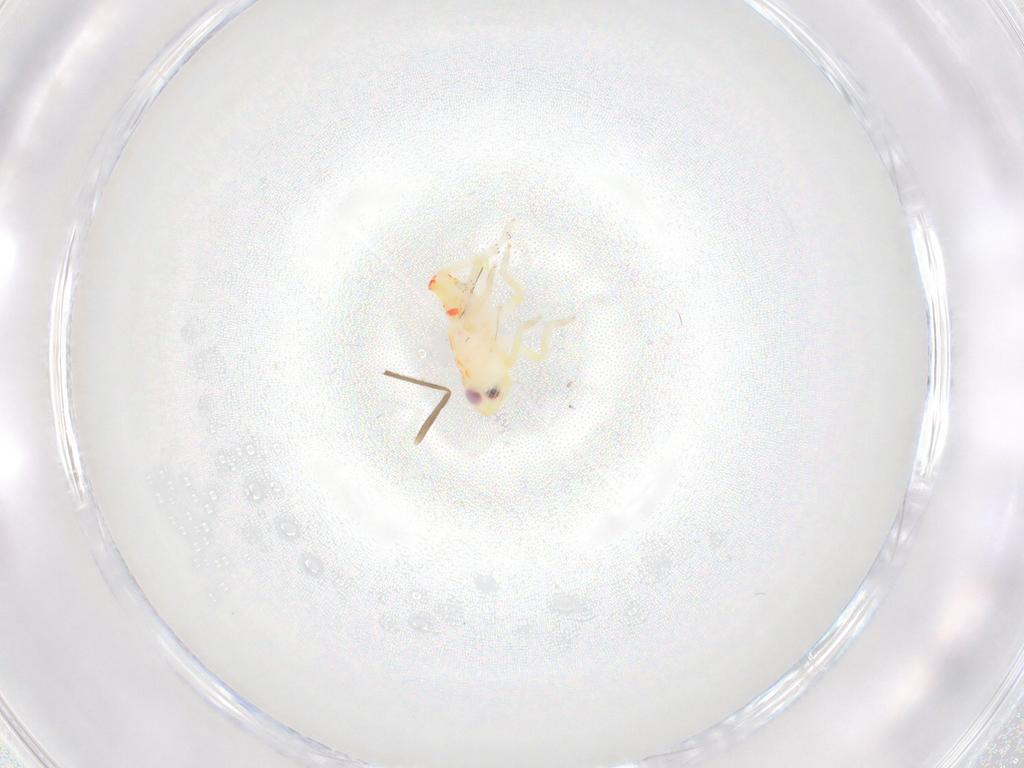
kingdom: Animalia
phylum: Arthropoda
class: Insecta
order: Hemiptera
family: Tropiduchidae
